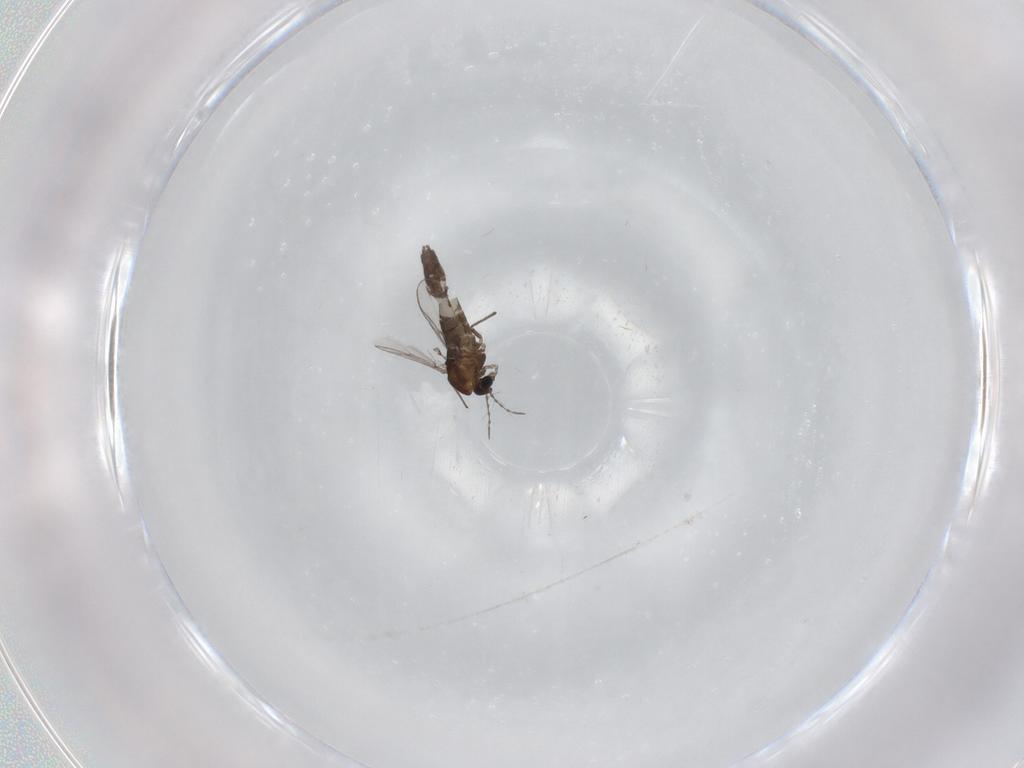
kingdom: Animalia
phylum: Arthropoda
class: Insecta
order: Diptera
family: Chironomidae
